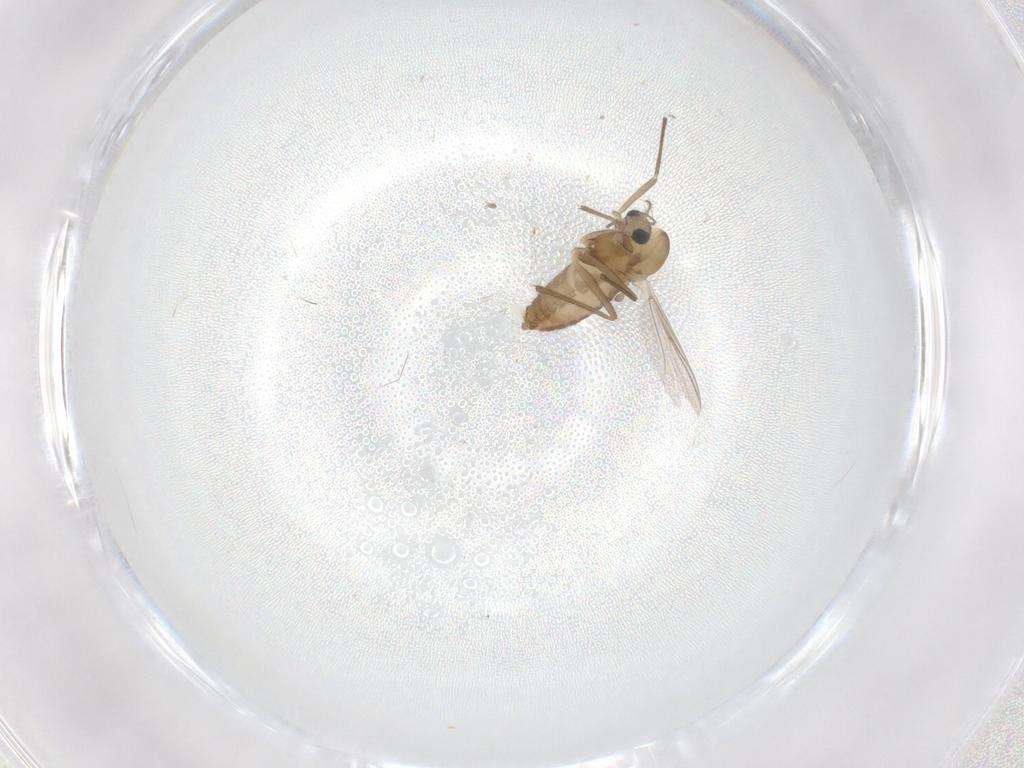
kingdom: Animalia
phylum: Arthropoda
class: Insecta
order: Diptera
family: Chironomidae
